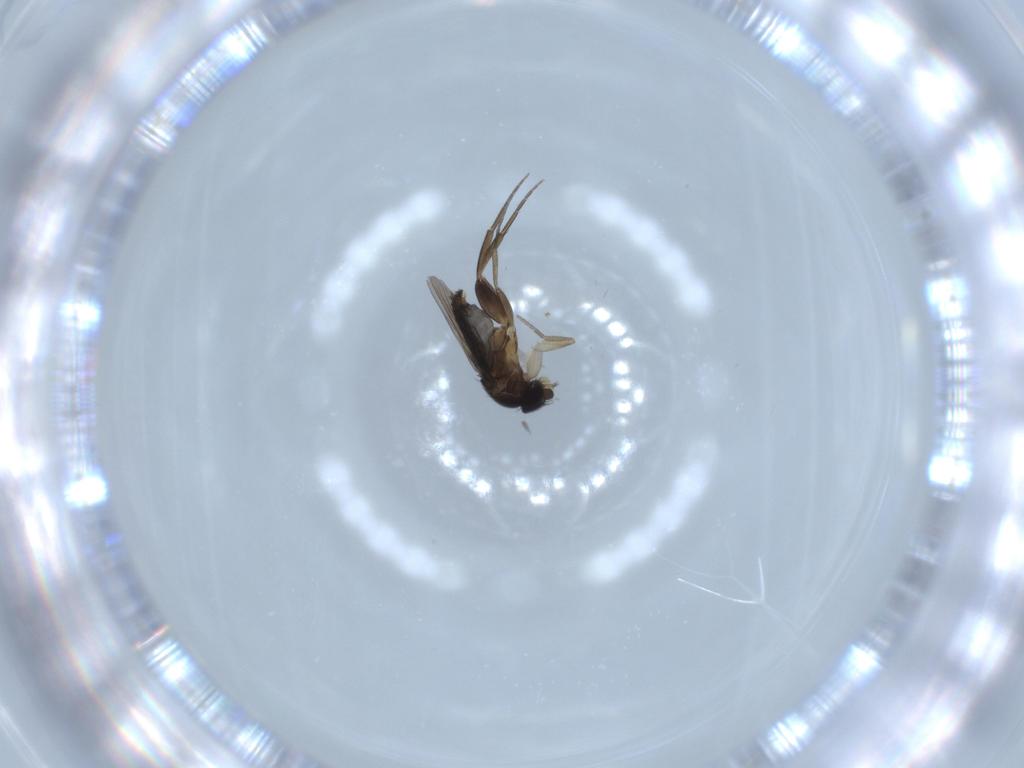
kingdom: Animalia
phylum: Arthropoda
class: Insecta
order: Diptera
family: Phoridae
